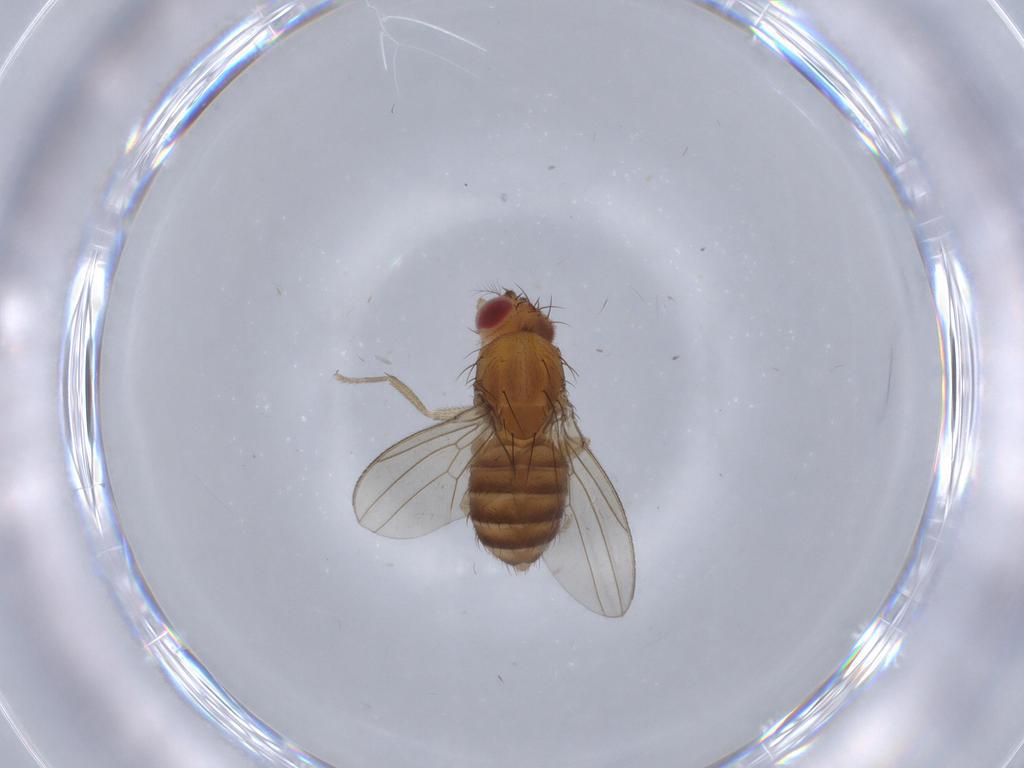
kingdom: Animalia
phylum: Arthropoda
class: Insecta
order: Diptera
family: Drosophilidae
